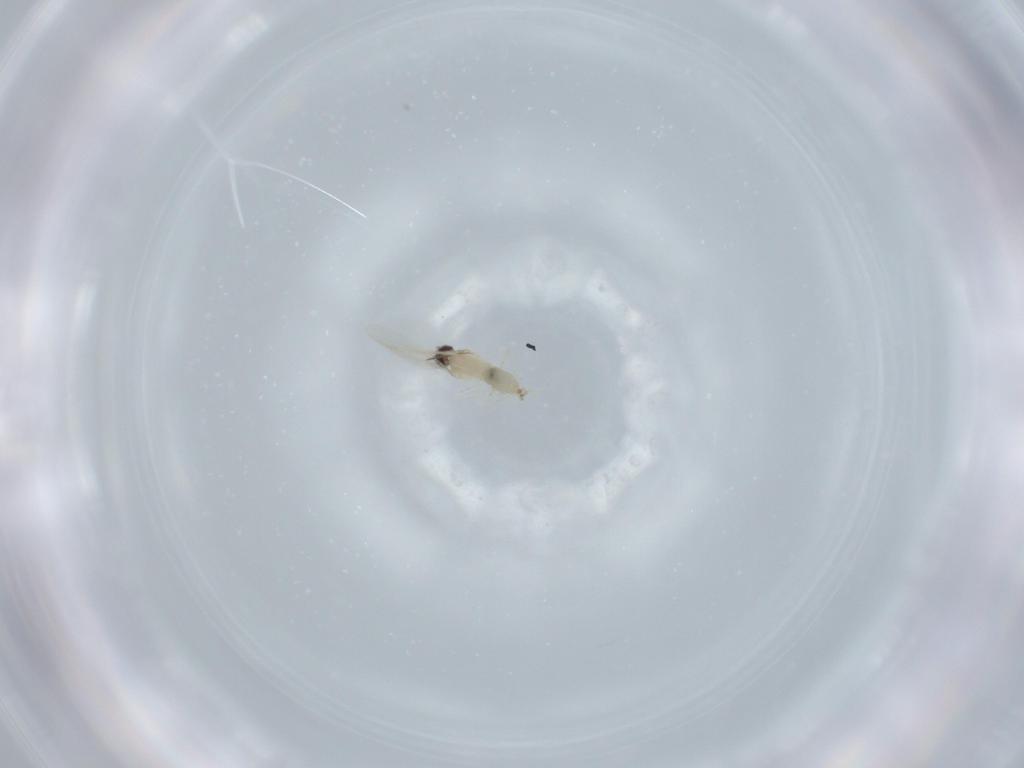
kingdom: Animalia
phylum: Arthropoda
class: Insecta
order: Diptera
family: Cecidomyiidae
